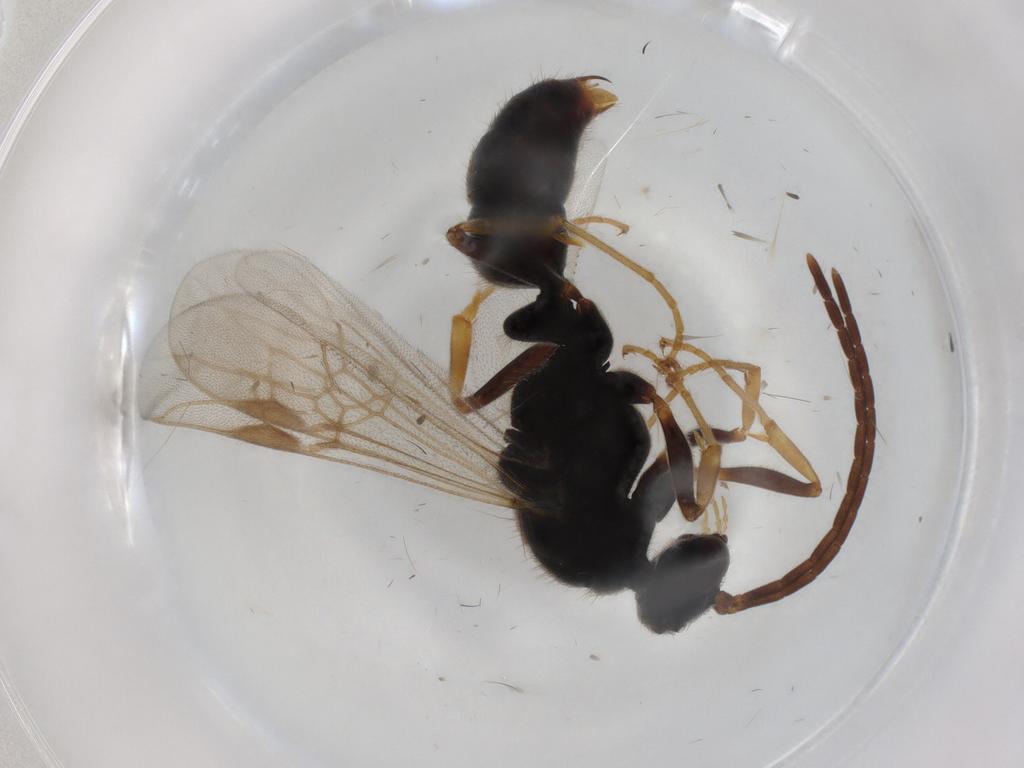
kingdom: Animalia
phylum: Arthropoda
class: Insecta
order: Hymenoptera
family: Formicidae
